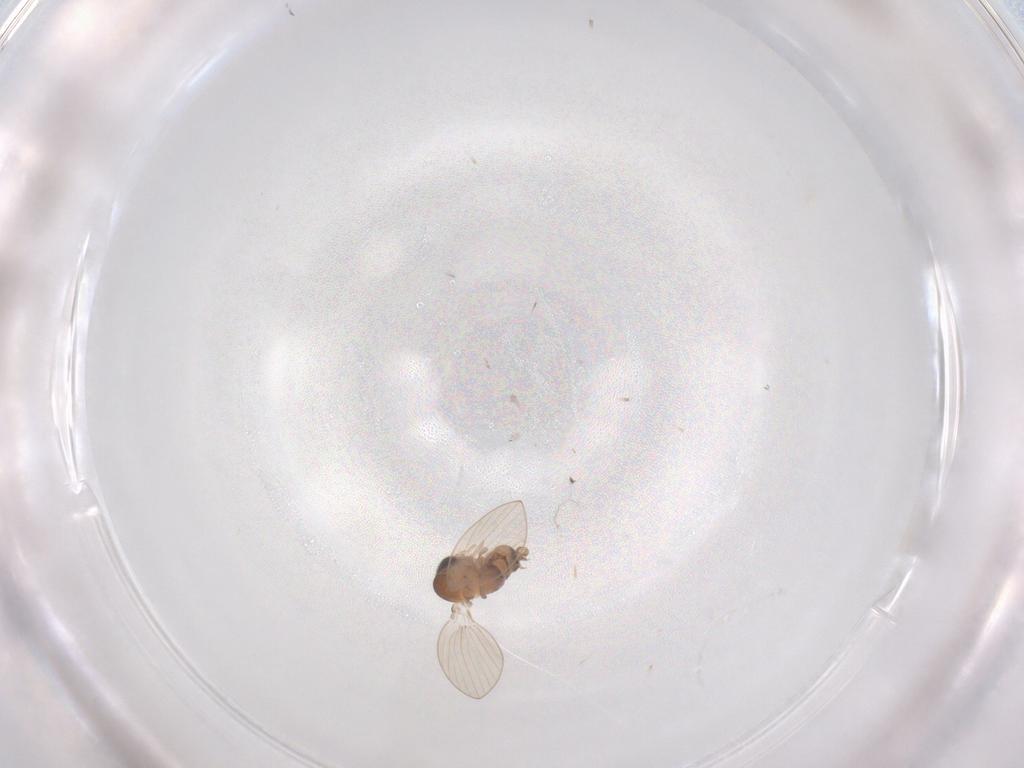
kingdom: Animalia
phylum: Arthropoda
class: Insecta
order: Diptera
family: Psychodidae
